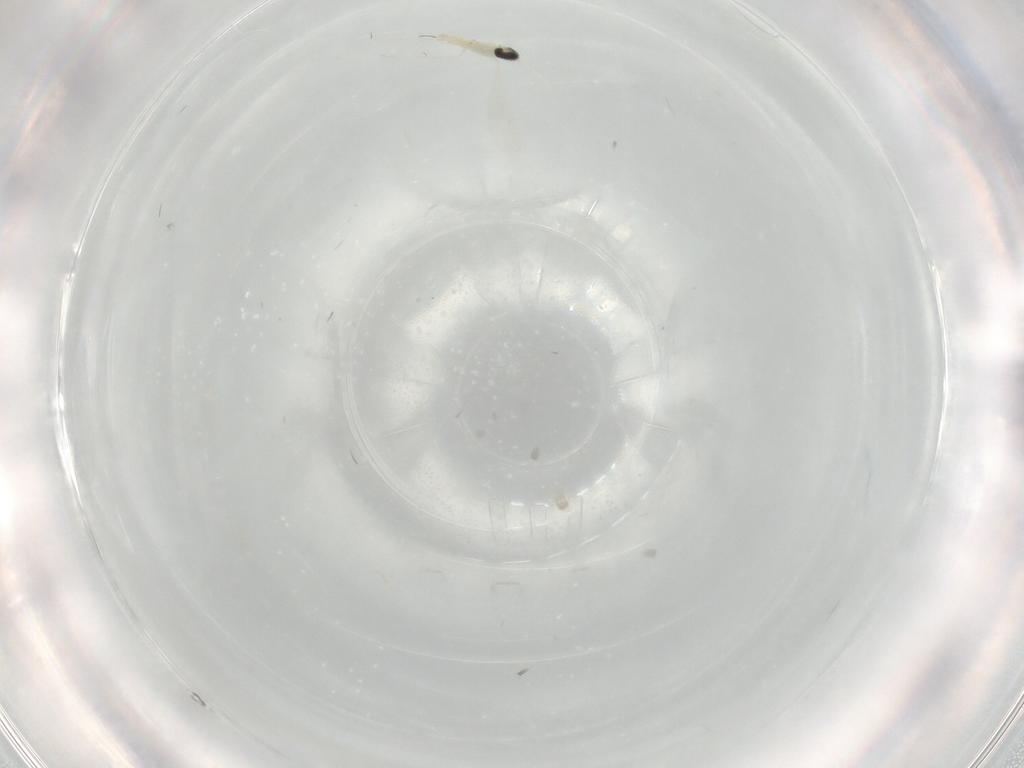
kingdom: Animalia
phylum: Arthropoda
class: Insecta
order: Diptera
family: Cecidomyiidae
